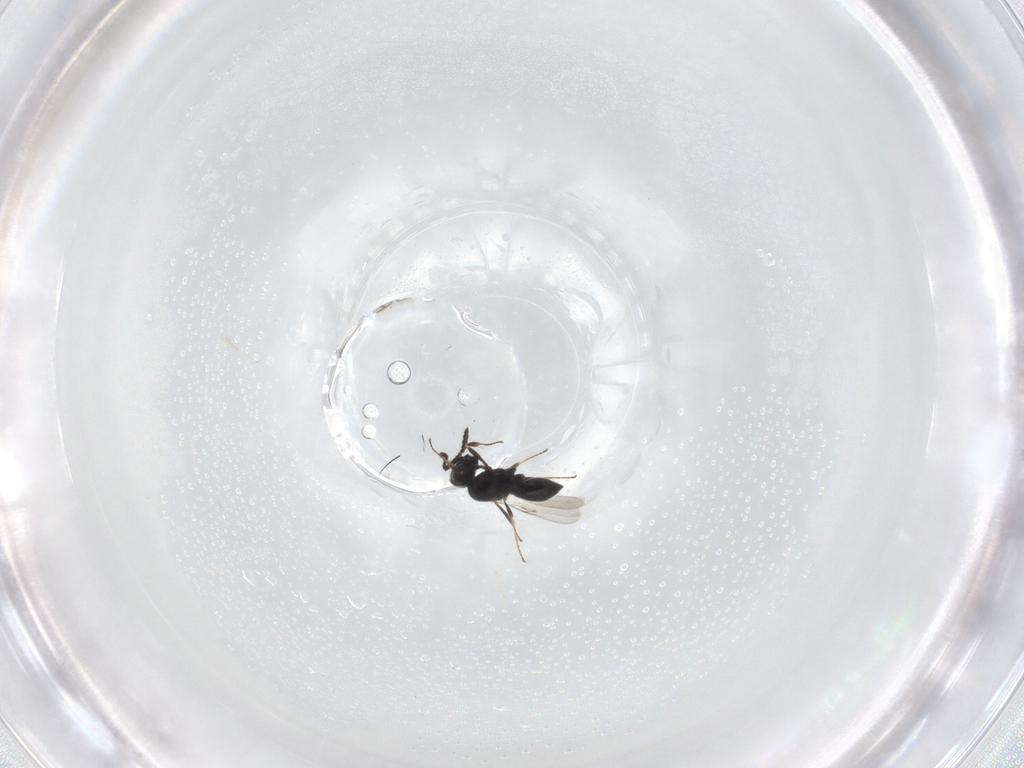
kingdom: Animalia
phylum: Arthropoda
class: Insecta
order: Hymenoptera
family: Scelionidae
